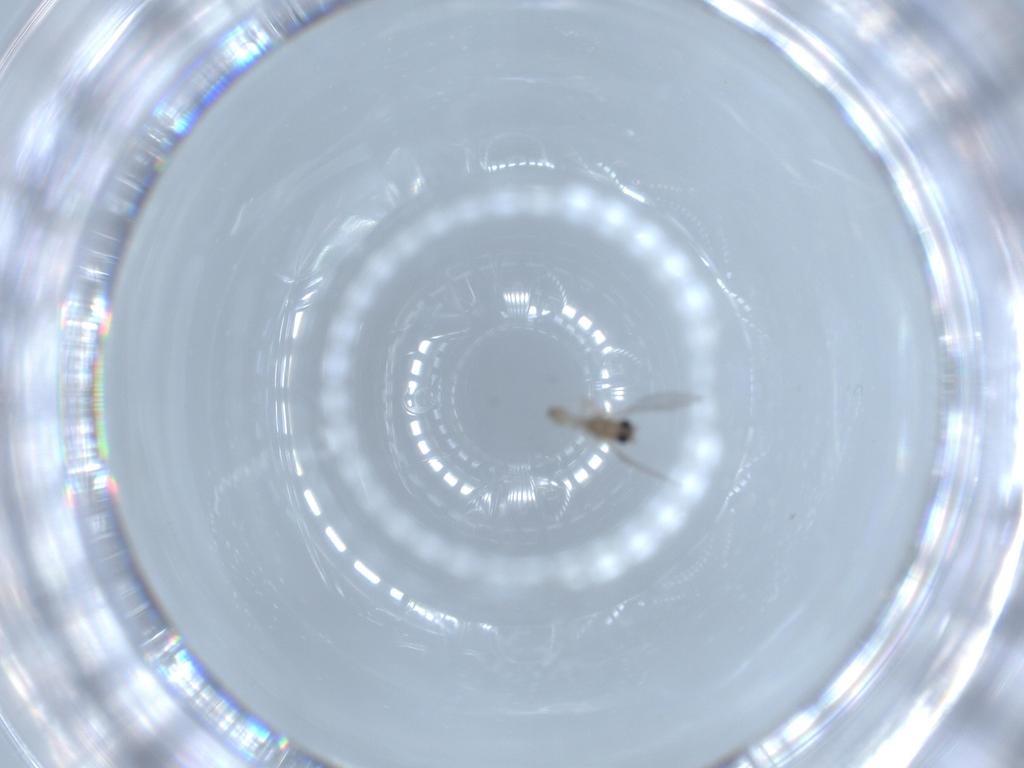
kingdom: Animalia
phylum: Arthropoda
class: Insecta
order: Diptera
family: Cecidomyiidae
